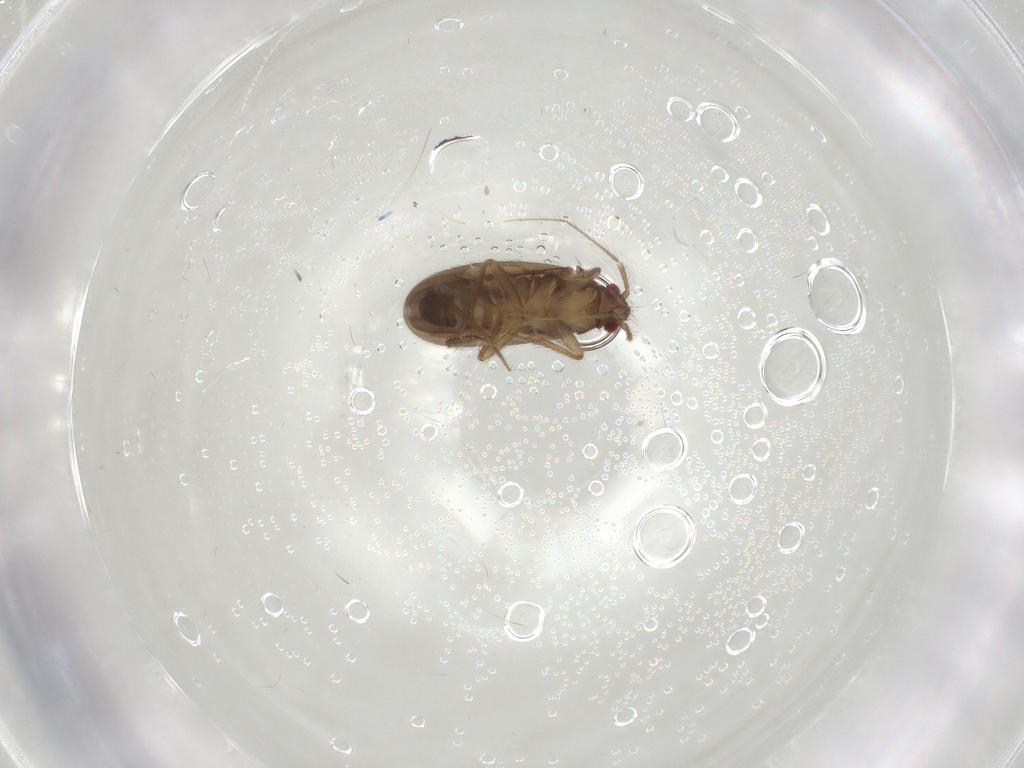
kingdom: Animalia
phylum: Arthropoda
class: Insecta
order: Hemiptera
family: Ceratocombidae
